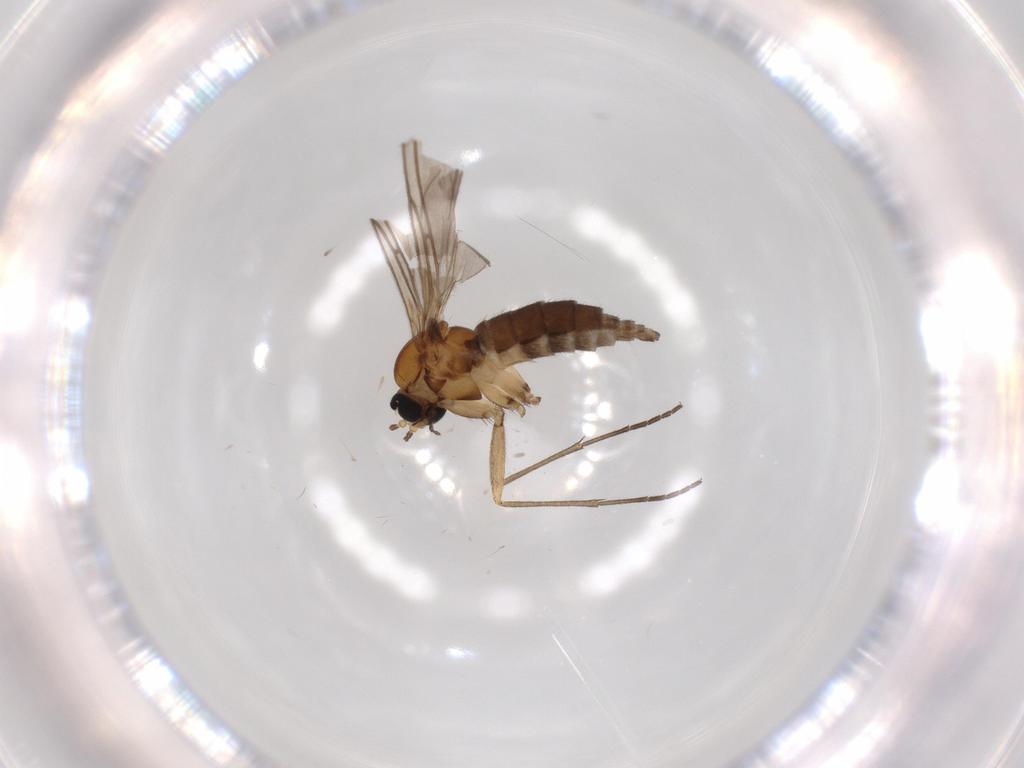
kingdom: Animalia
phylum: Arthropoda
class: Insecta
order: Diptera
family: Sciaridae
